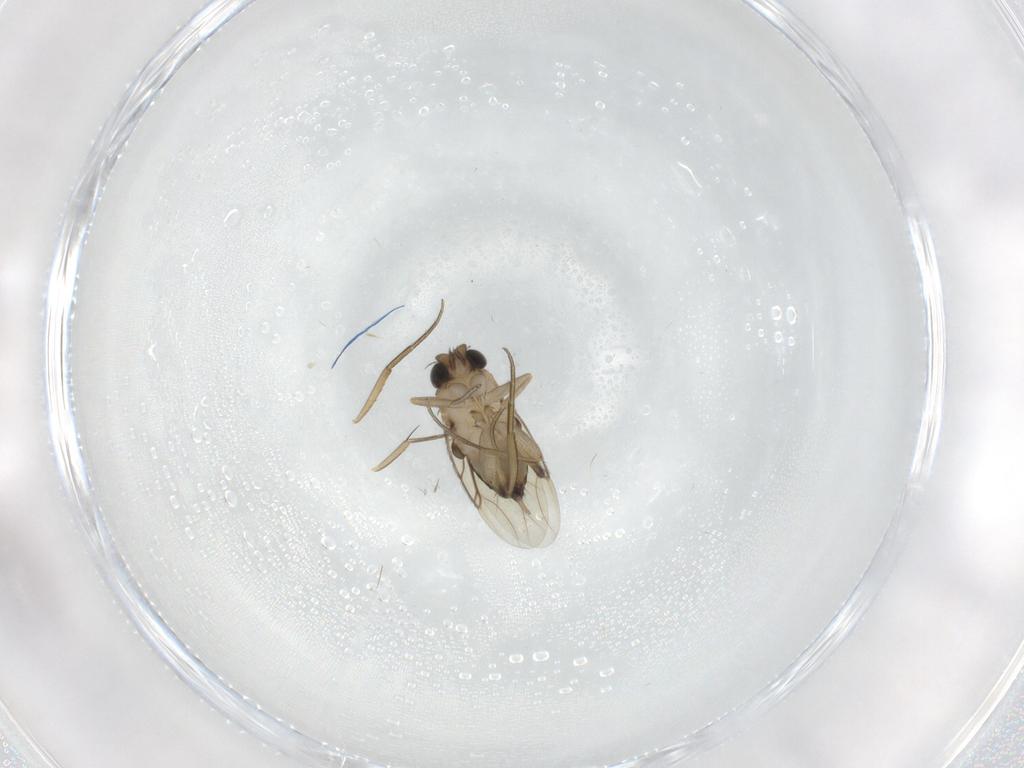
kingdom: Animalia
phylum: Arthropoda
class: Insecta
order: Diptera
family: Phoridae
